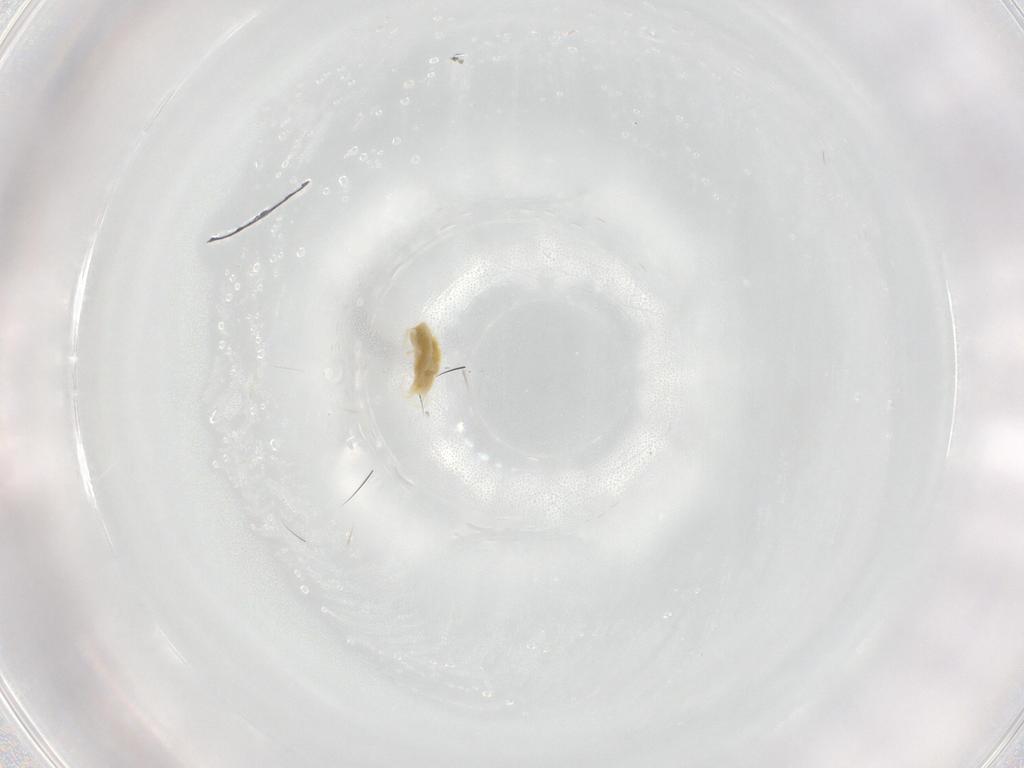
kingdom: Animalia
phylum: Arthropoda
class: Arachnida
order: Trombidiformes
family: Tetranychidae
